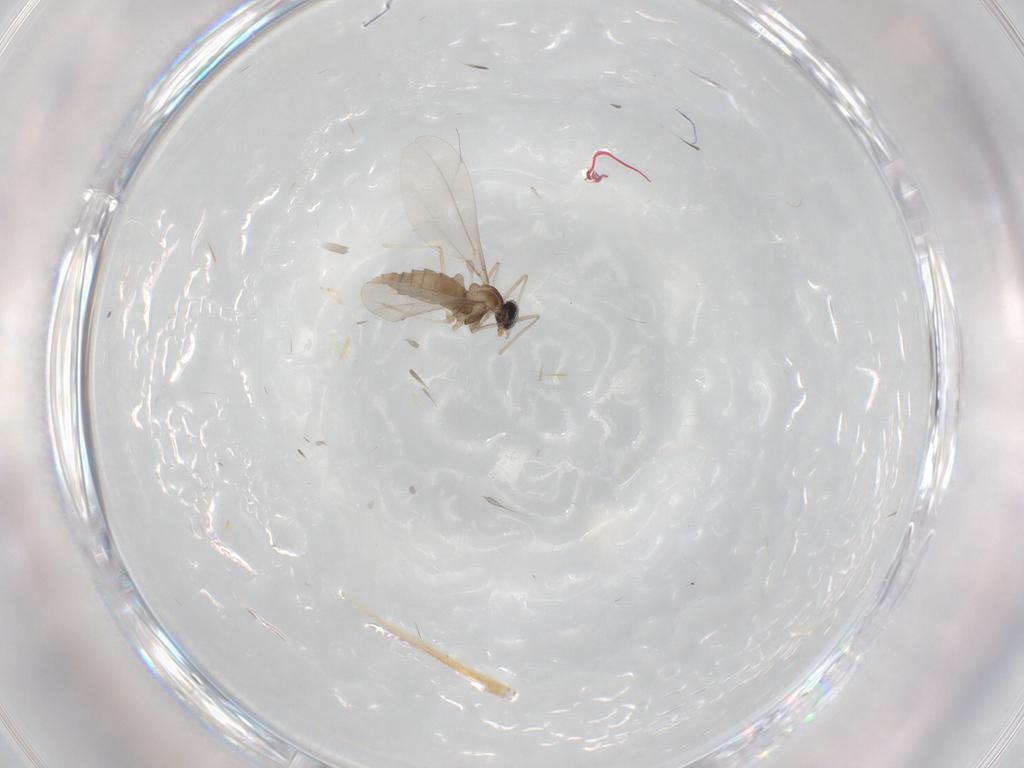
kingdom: Animalia
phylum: Arthropoda
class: Insecta
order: Diptera
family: Cecidomyiidae
